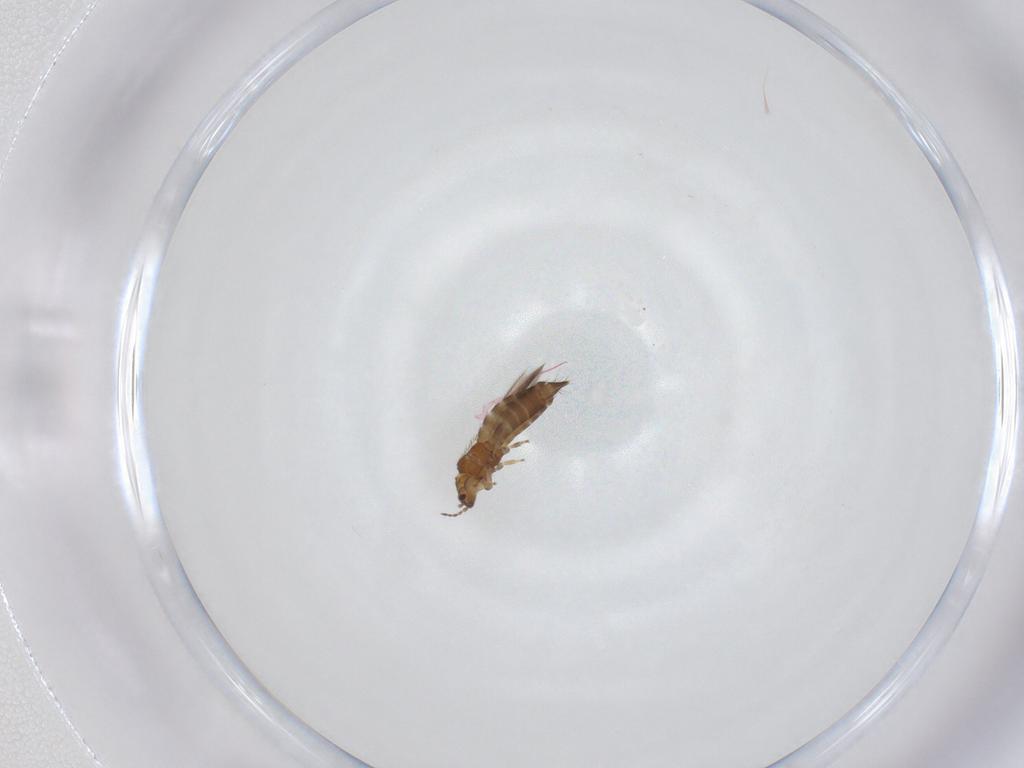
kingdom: Animalia
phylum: Arthropoda
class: Insecta
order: Thysanoptera
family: Thripidae
